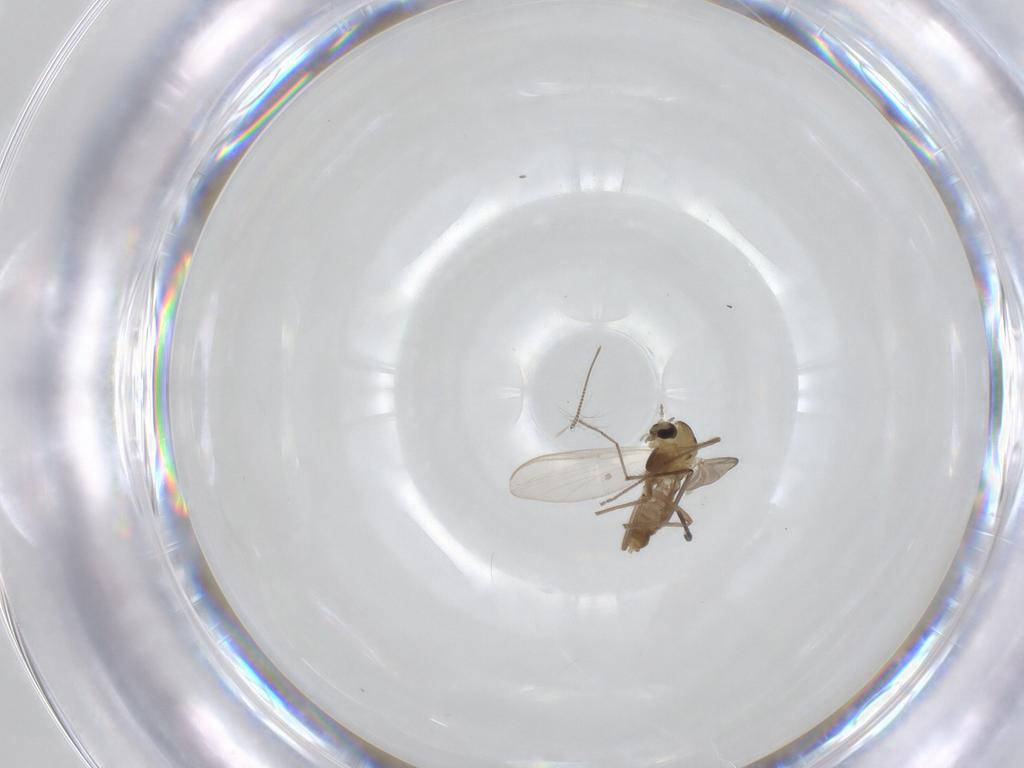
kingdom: Animalia
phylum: Arthropoda
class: Insecta
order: Diptera
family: Chironomidae
